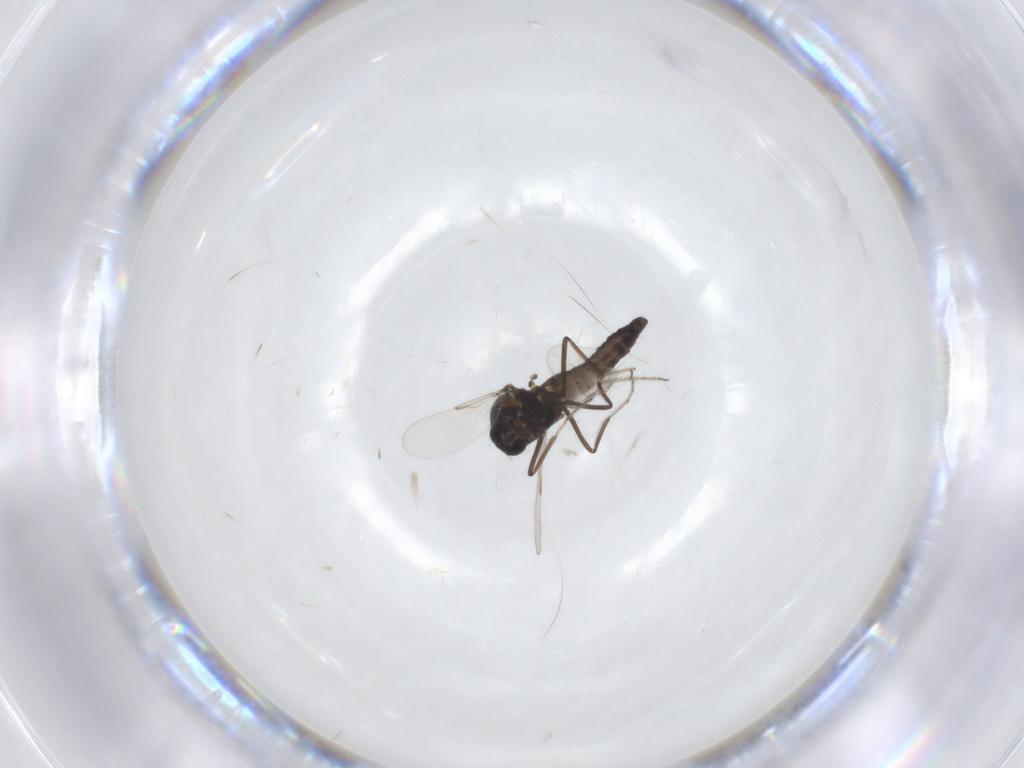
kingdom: Animalia
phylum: Arthropoda
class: Insecta
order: Diptera
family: Ceratopogonidae
